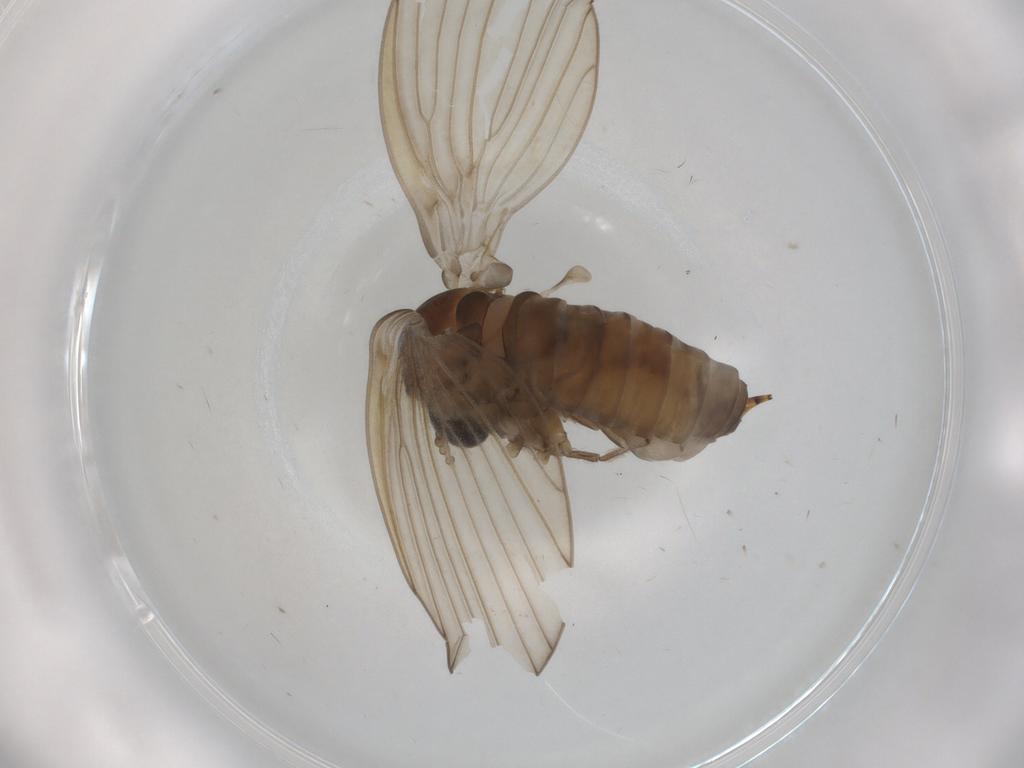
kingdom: Animalia
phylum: Arthropoda
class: Insecta
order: Diptera
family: Psychodidae
